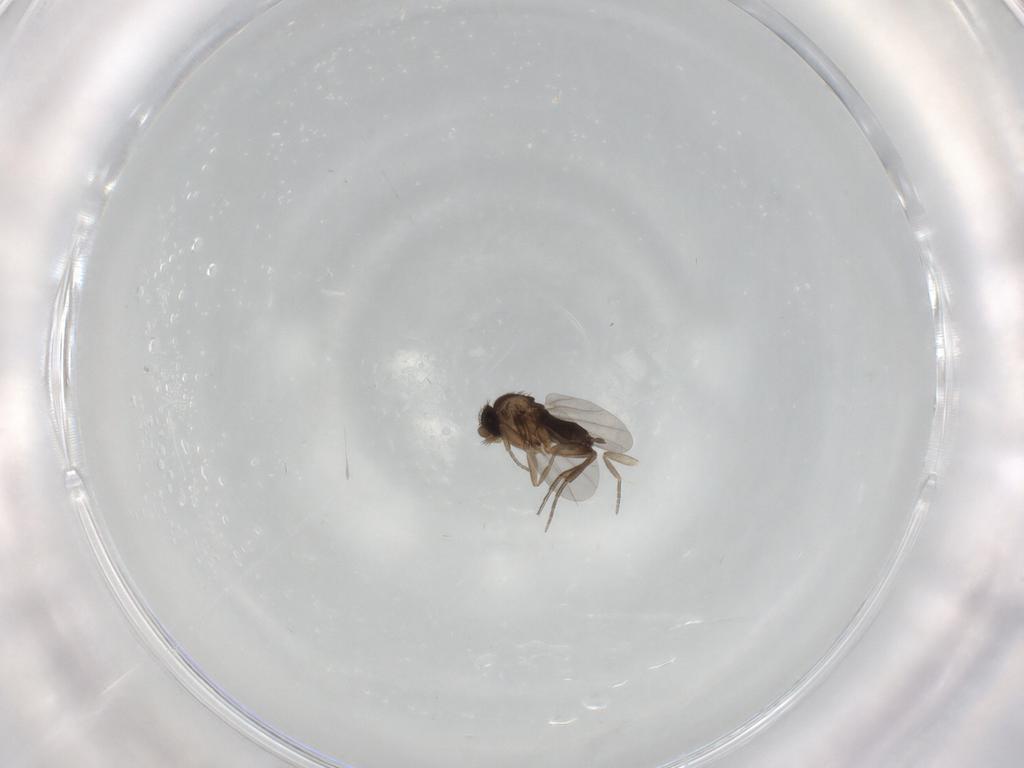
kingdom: Animalia
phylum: Arthropoda
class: Insecta
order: Diptera
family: Phoridae
